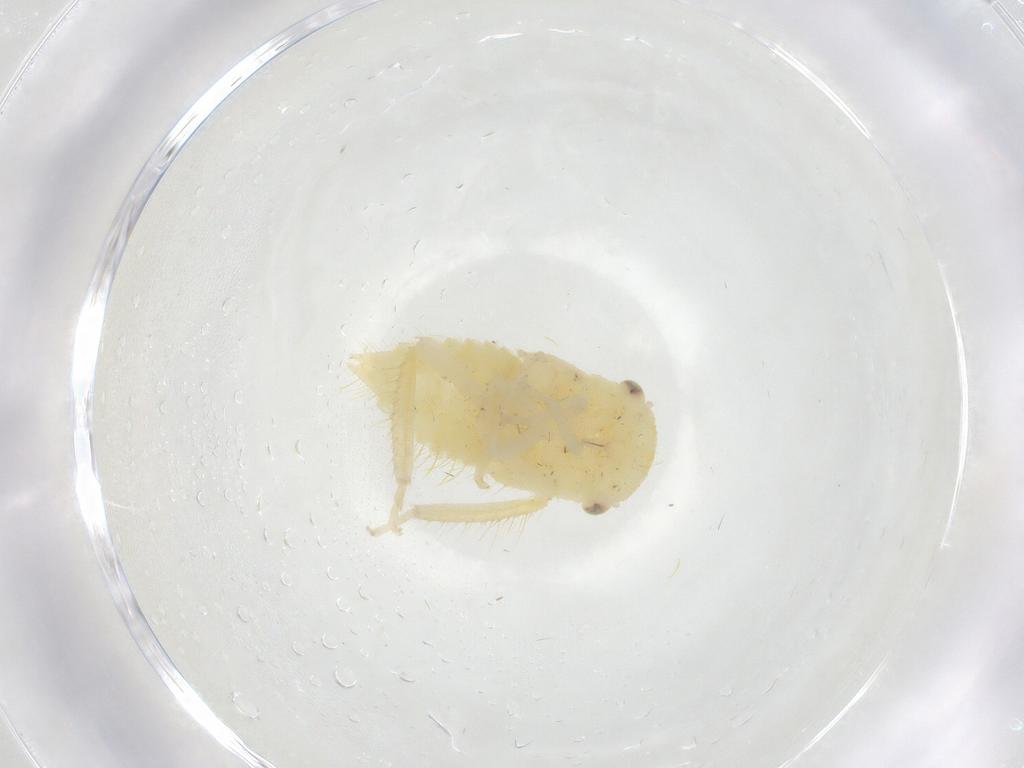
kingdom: Animalia
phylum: Arthropoda
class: Insecta
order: Hemiptera
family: Cicadellidae
